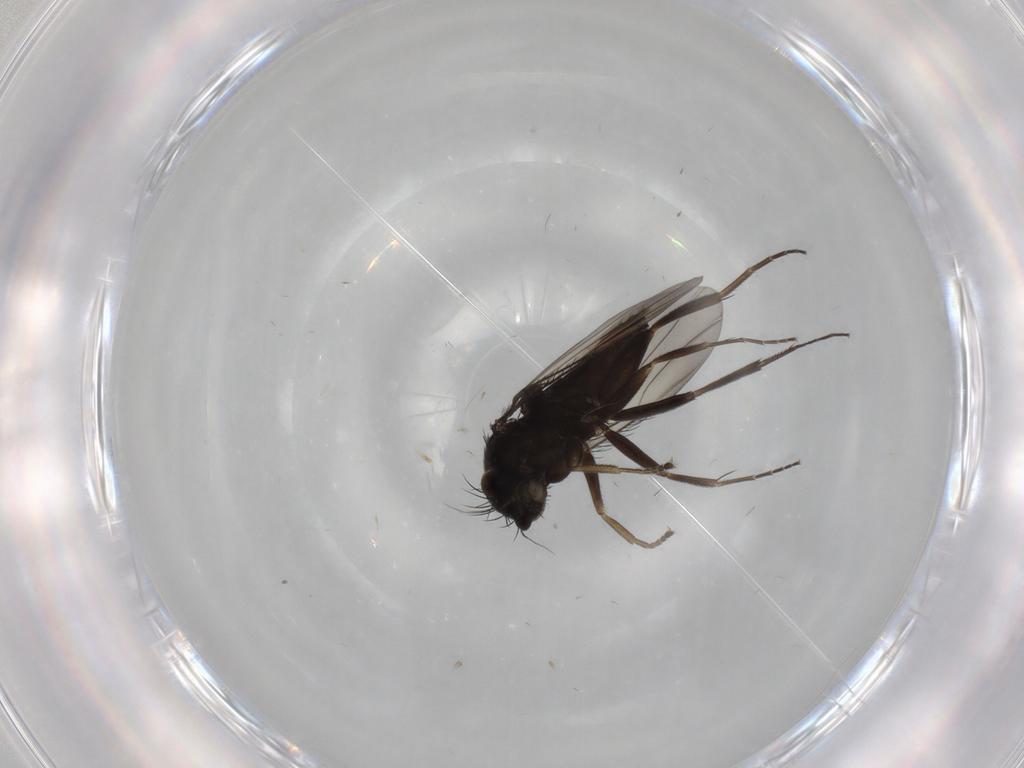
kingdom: Animalia
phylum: Arthropoda
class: Insecta
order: Diptera
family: Phoridae
